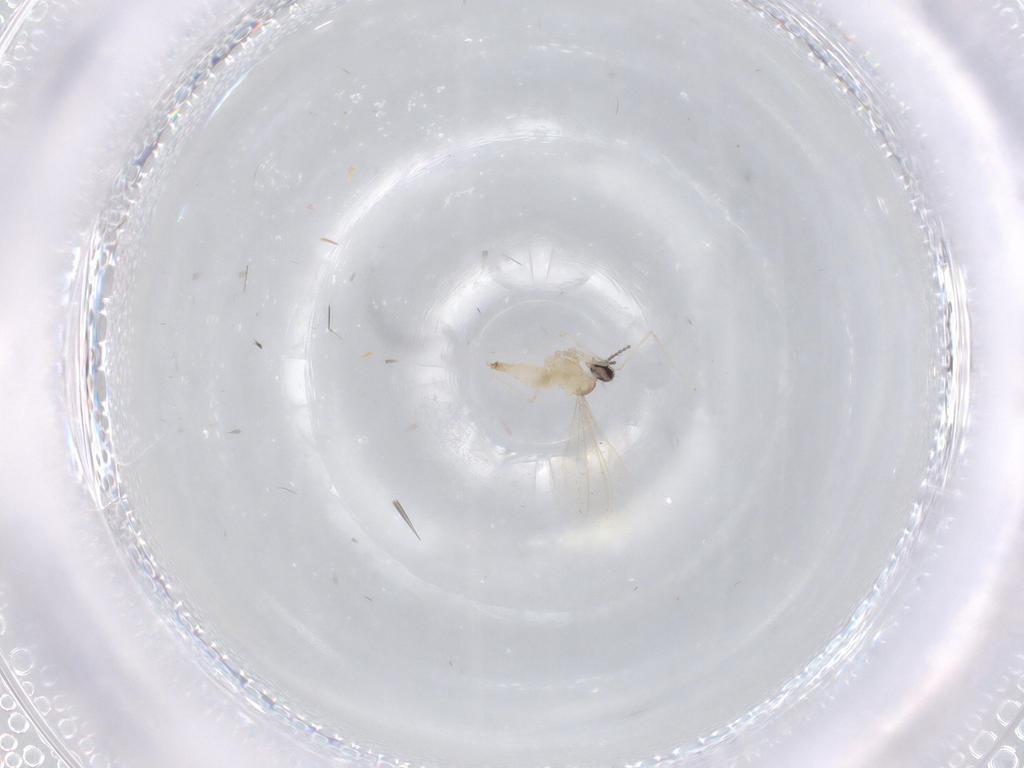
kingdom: Animalia
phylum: Arthropoda
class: Insecta
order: Diptera
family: Cecidomyiidae
